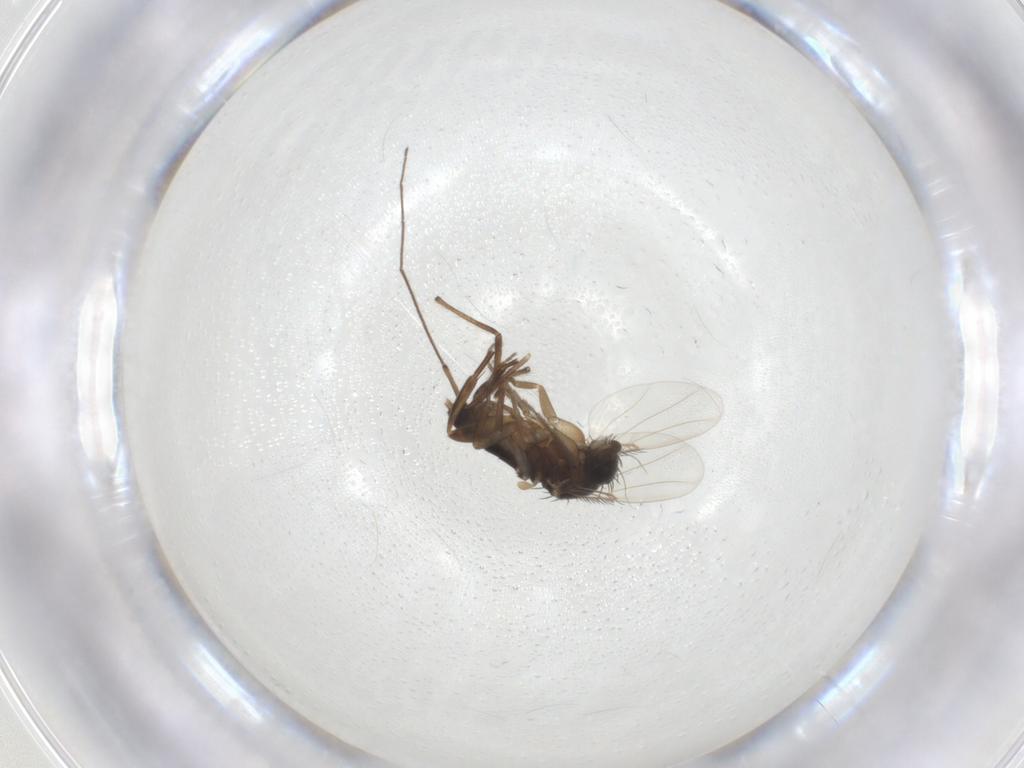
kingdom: Animalia
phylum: Arthropoda
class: Insecta
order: Diptera
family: Phoridae
